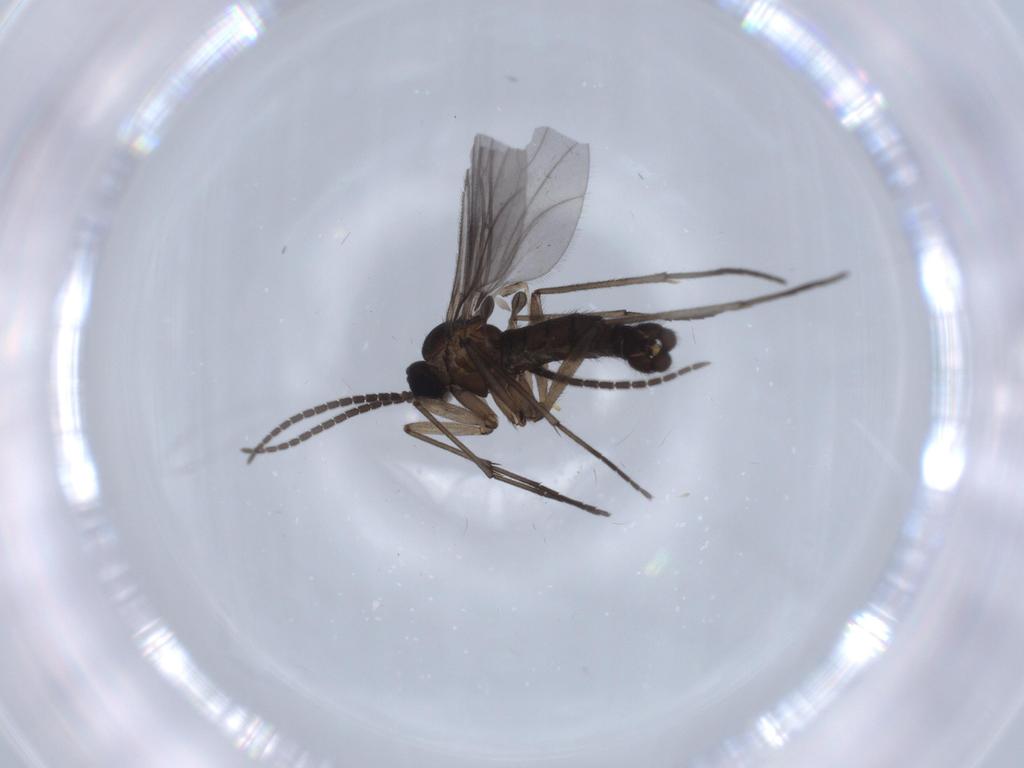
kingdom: Animalia
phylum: Arthropoda
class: Insecta
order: Diptera
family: Sciaridae
